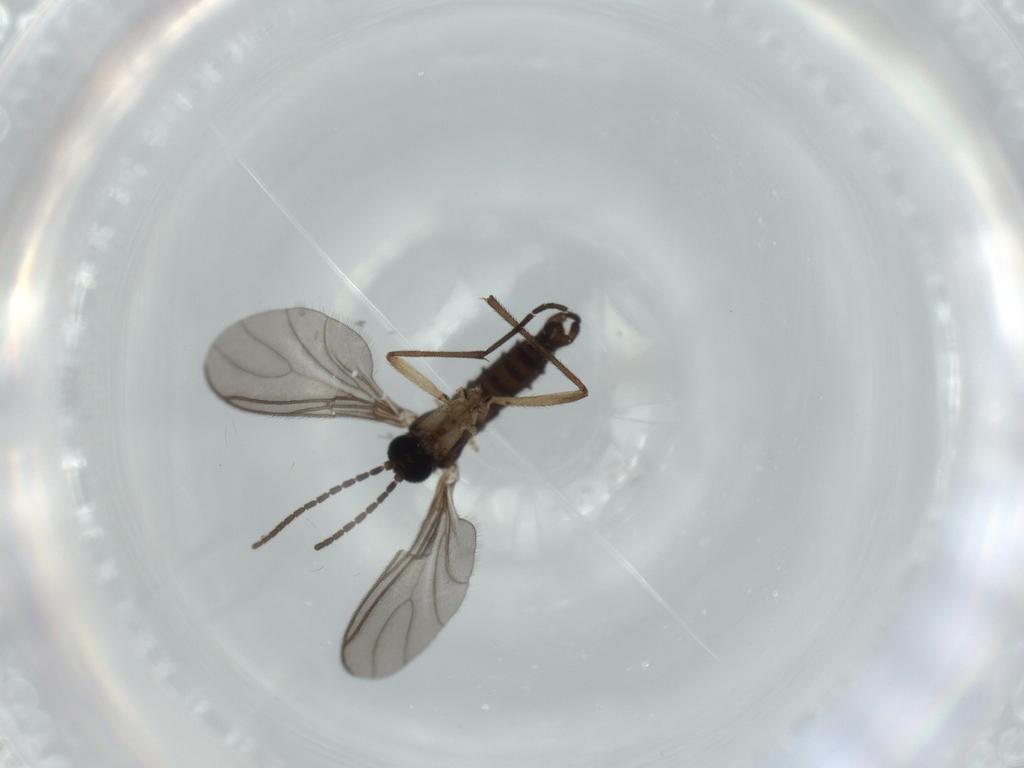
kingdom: Animalia
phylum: Arthropoda
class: Insecta
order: Diptera
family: Sciaridae
